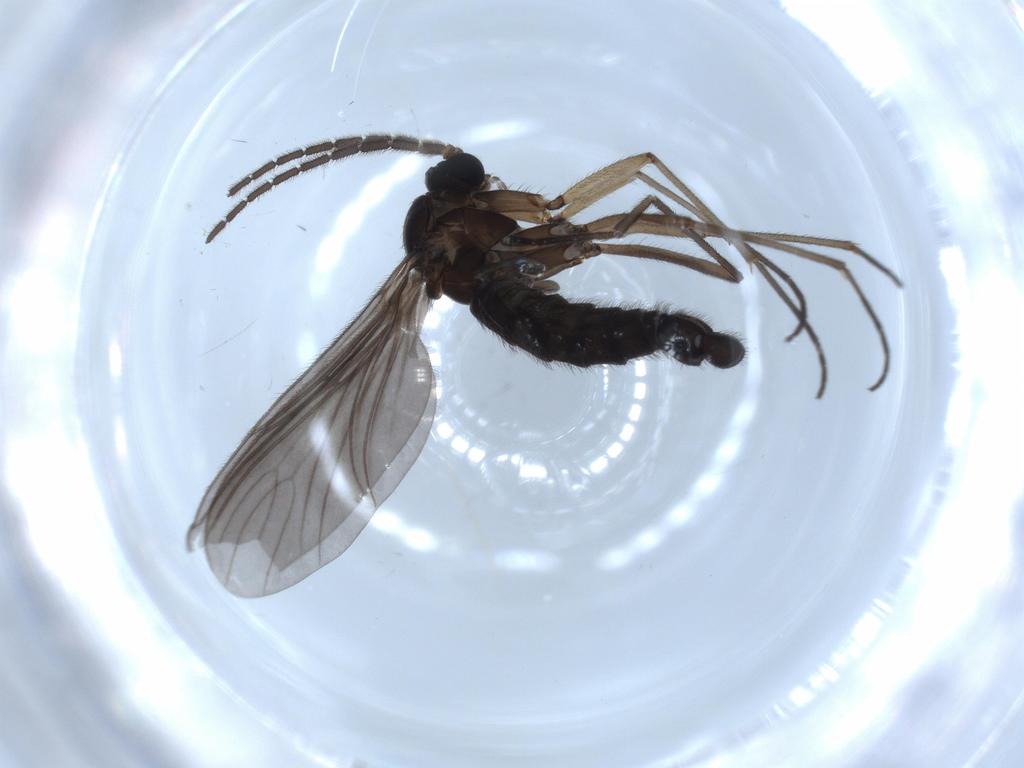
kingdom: Animalia
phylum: Arthropoda
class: Insecta
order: Diptera
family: Sciaridae
